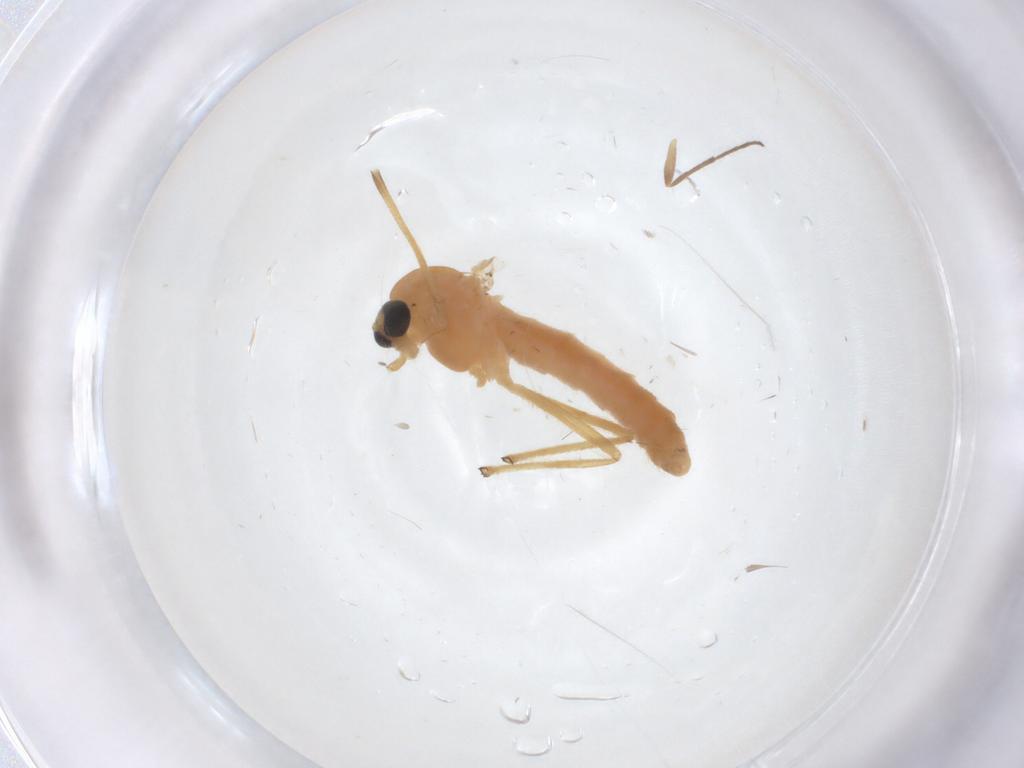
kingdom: Animalia
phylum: Arthropoda
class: Insecta
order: Diptera
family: Chironomidae
